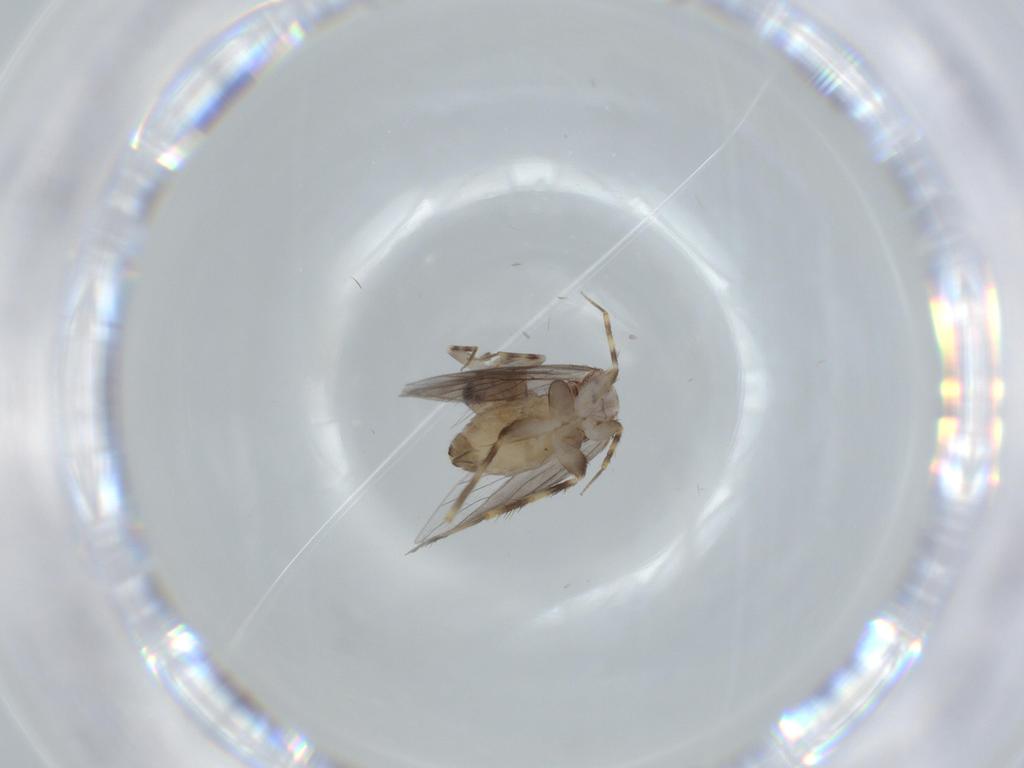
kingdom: Animalia
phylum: Arthropoda
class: Insecta
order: Psocodea
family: Lepidopsocidae
